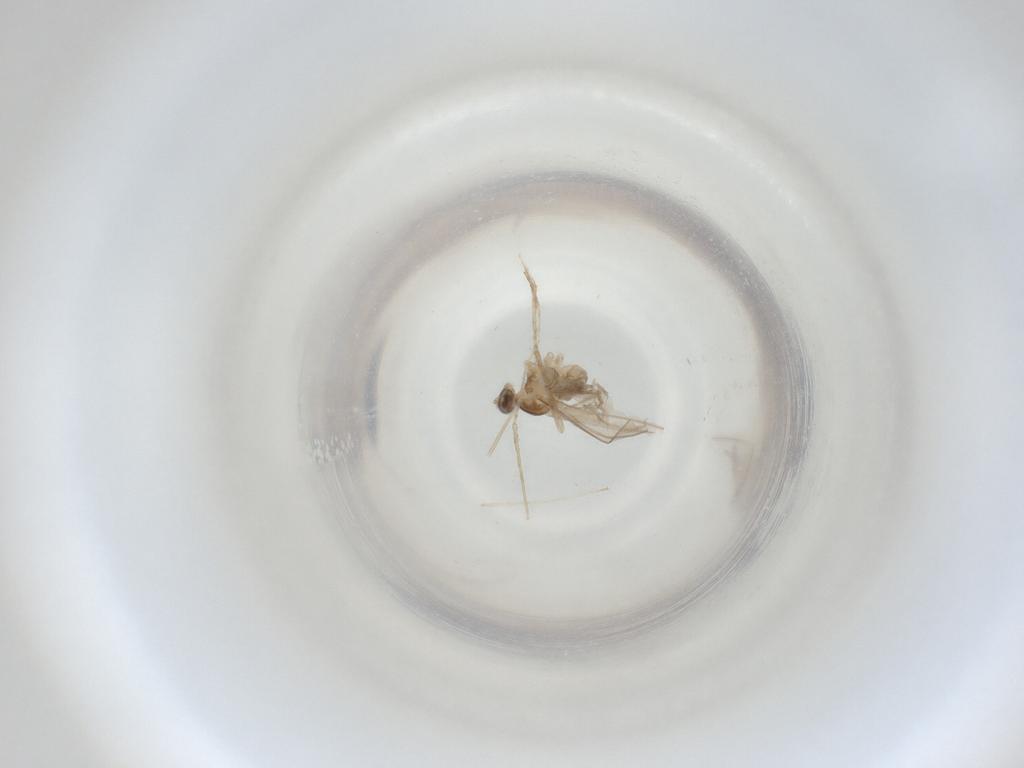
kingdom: Animalia
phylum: Arthropoda
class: Insecta
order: Diptera
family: Cecidomyiidae
